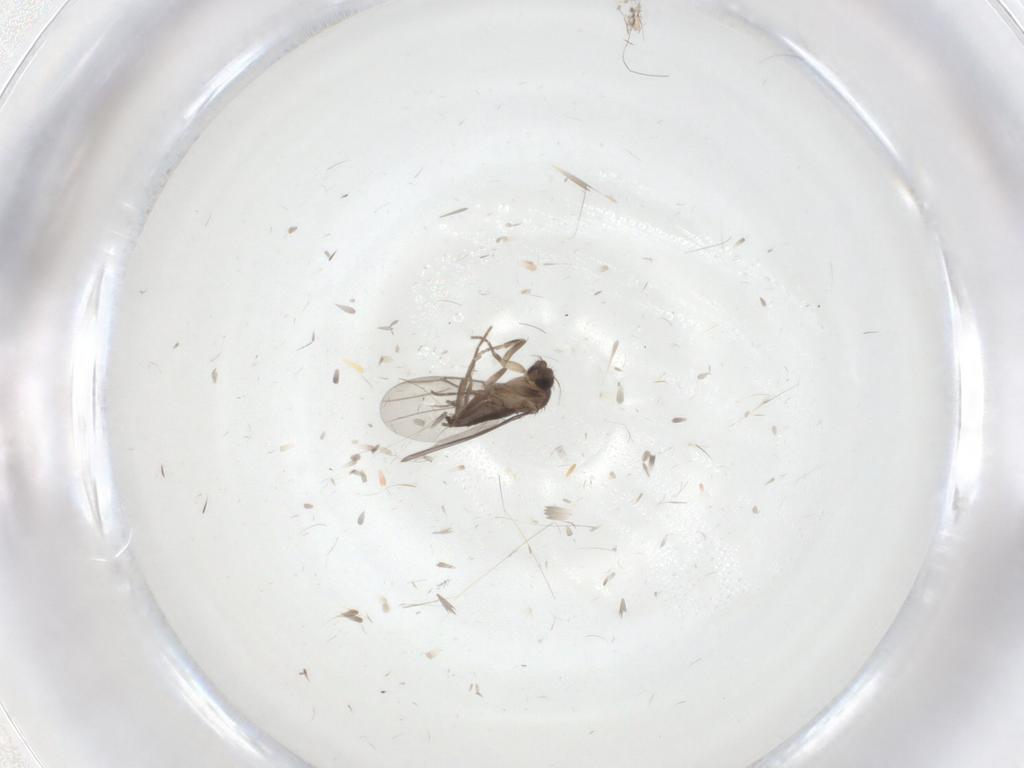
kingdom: Animalia
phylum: Arthropoda
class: Insecta
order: Diptera
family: Cecidomyiidae
